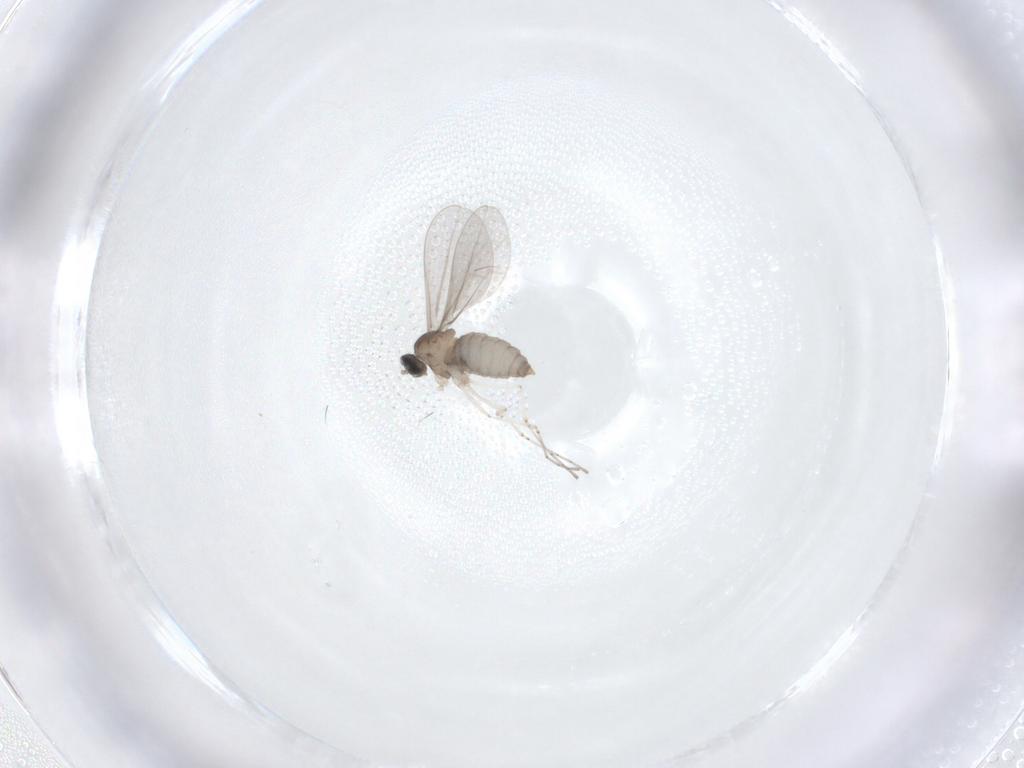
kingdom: Animalia
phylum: Arthropoda
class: Insecta
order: Diptera
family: Cecidomyiidae
